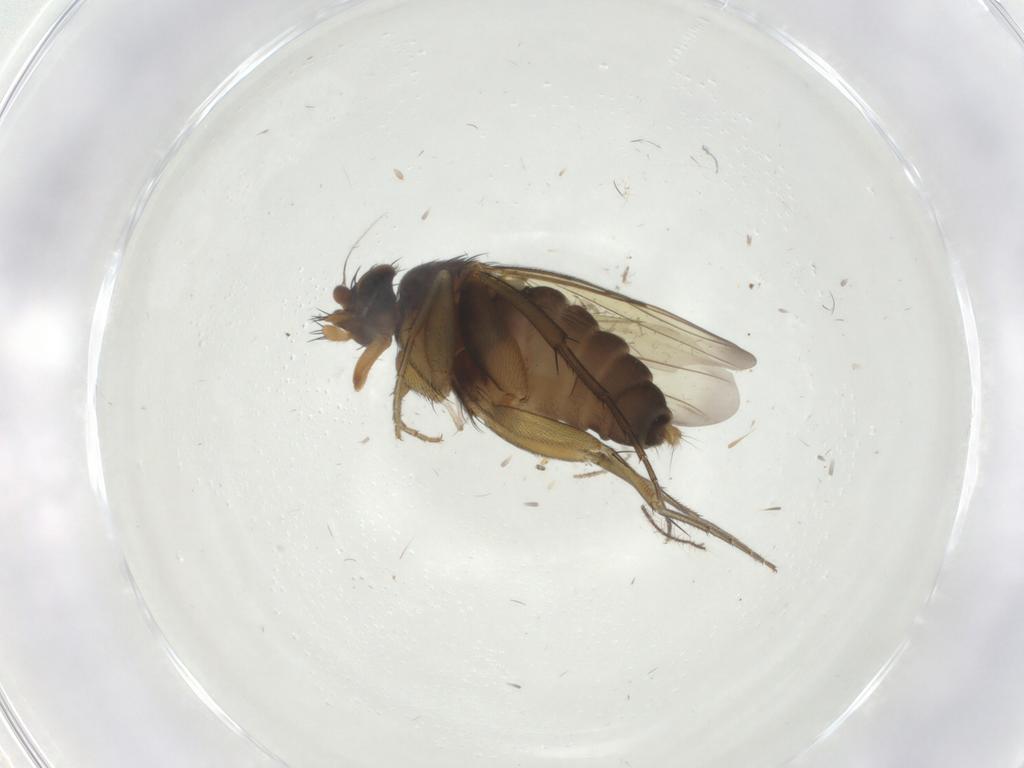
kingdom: Animalia
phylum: Arthropoda
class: Insecta
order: Diptera
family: Phoridae
